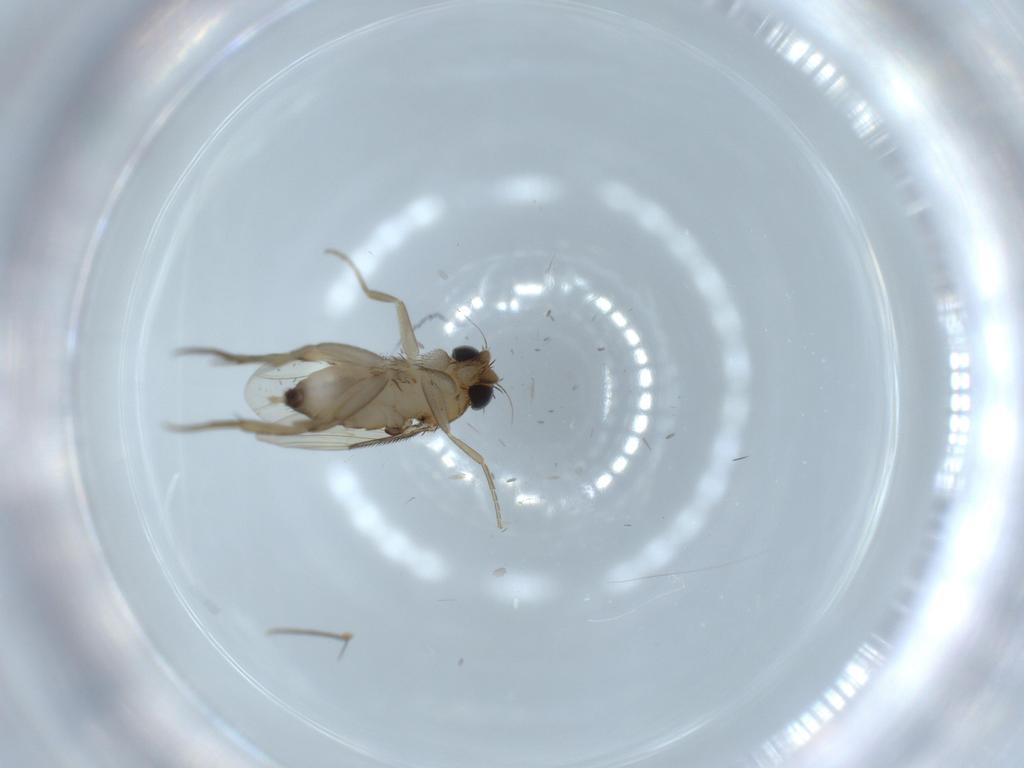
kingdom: Animalia
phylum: Arthropoda
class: Insecta
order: Diptera
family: Phoridae
